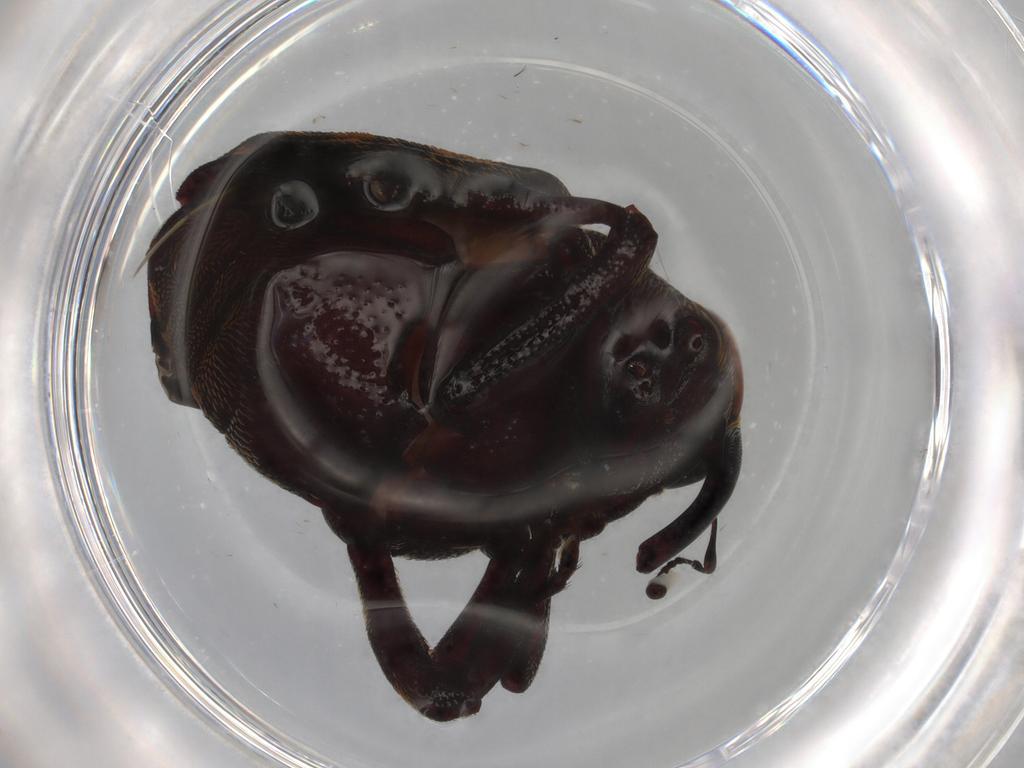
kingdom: Animalia
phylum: Arthropoda
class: Insecta
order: Coleoptera
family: Curculionidae
